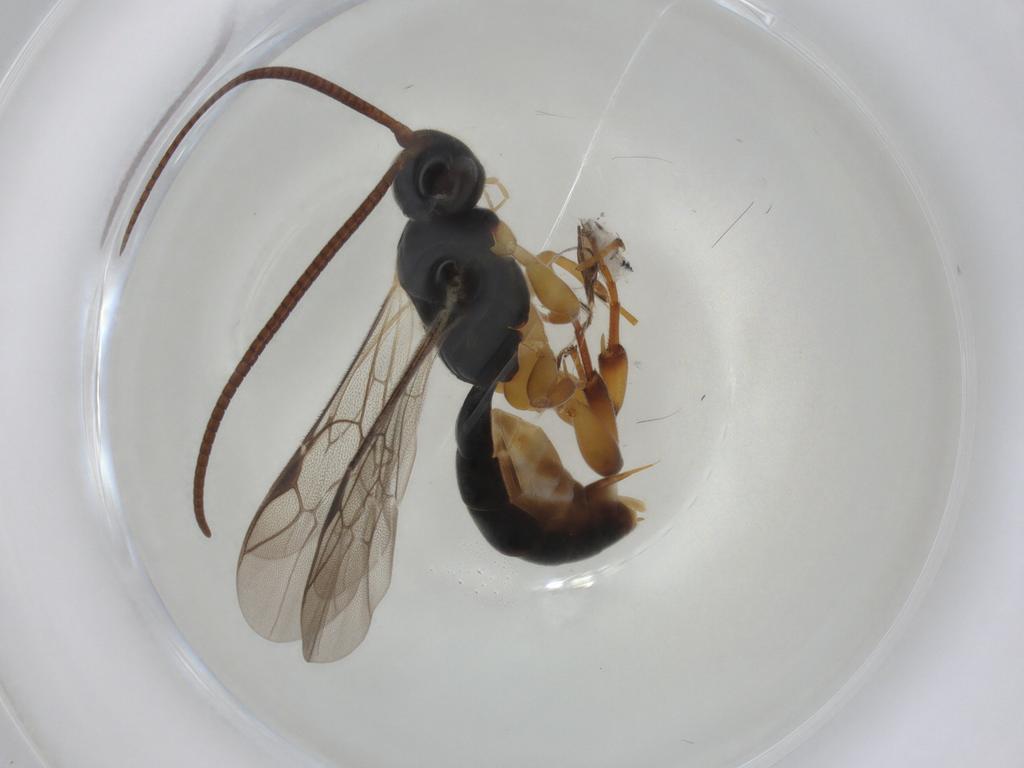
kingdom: Animalia
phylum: Arthropoda
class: Insecta
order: Hymenoptera
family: Ichneumonidae
